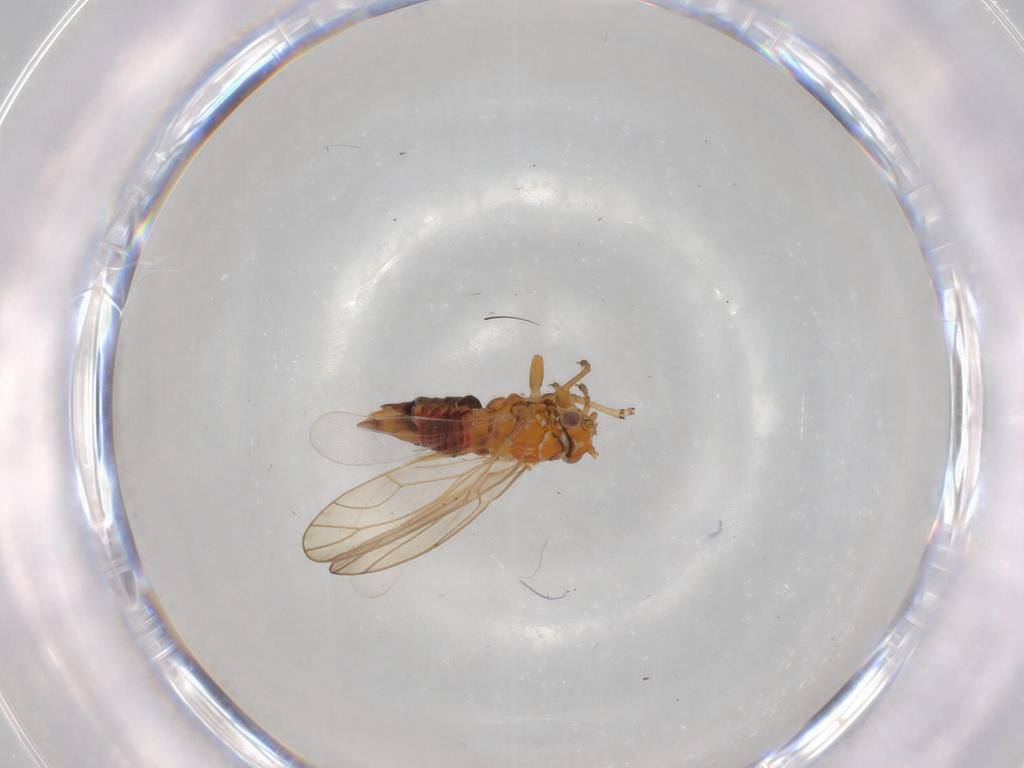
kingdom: Animalia
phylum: Arthropoda
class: Insecta
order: Hemiptera
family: Psyllidae
